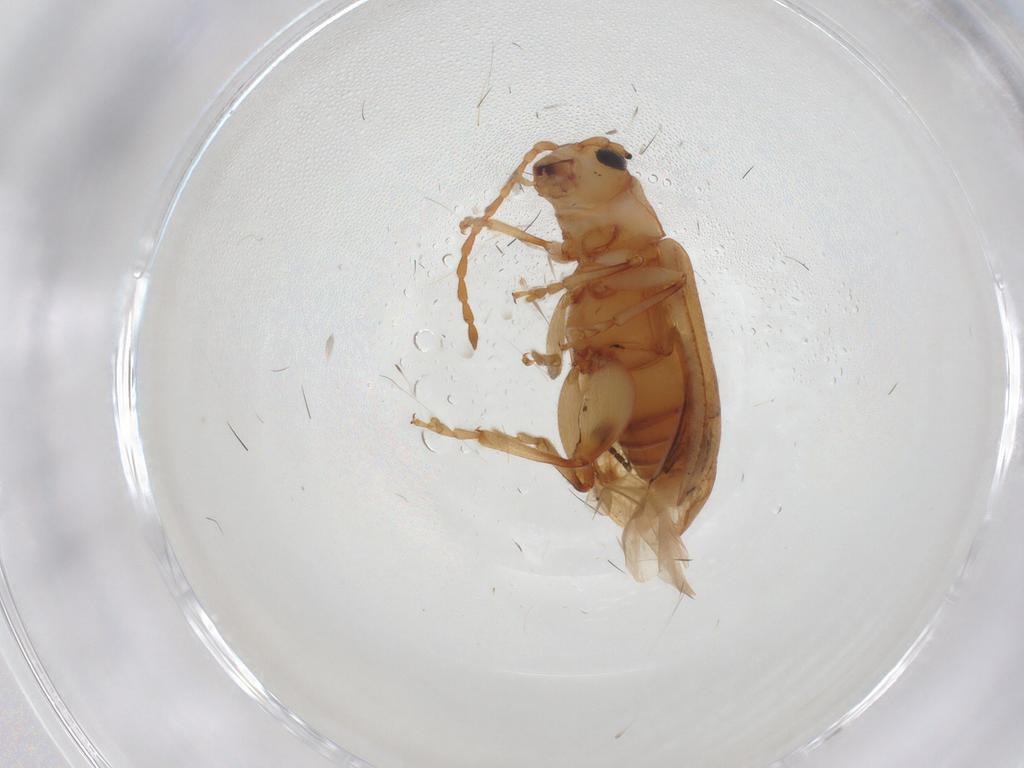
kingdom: Animalia
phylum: Arthropoda
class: Insecta
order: Coleoptera
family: Chrysomelidae
